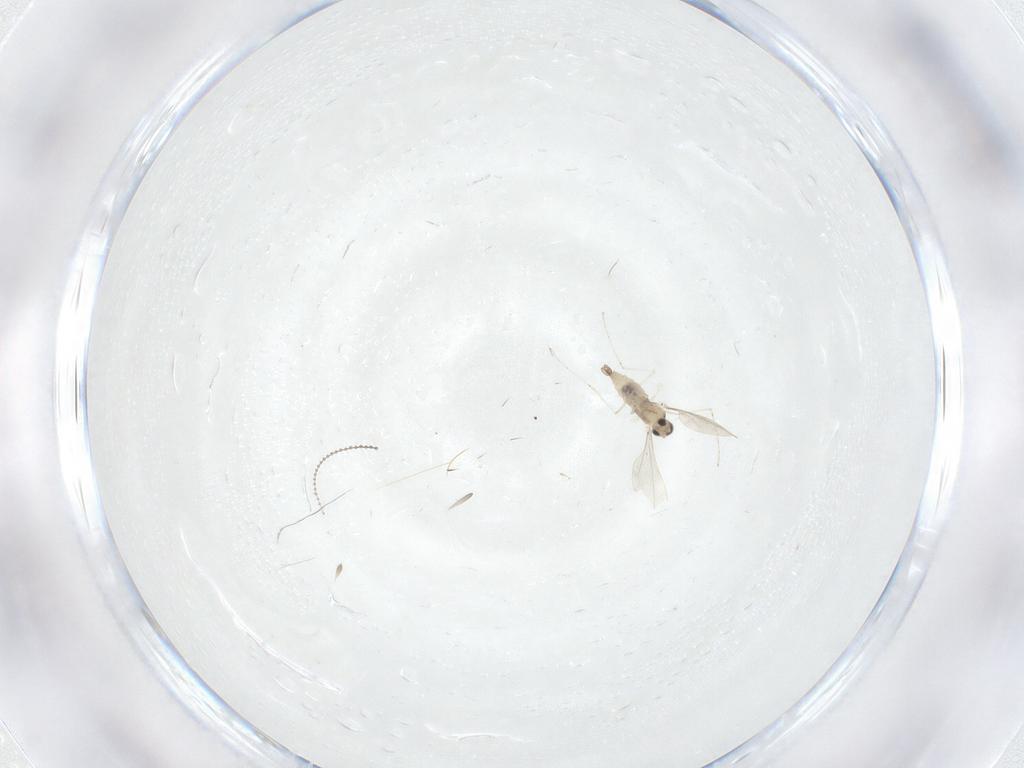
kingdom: Animalia
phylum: Arthropoda
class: Insecta
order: Diptera
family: Cecidomyiidae
